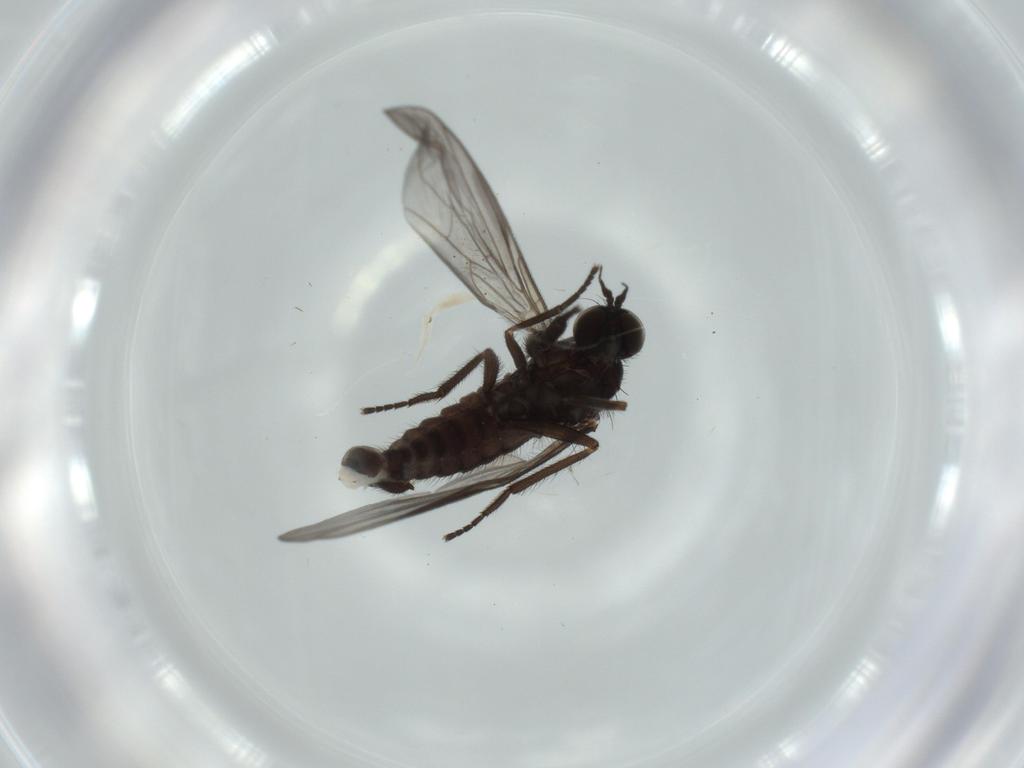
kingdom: Animalia
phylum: Arthropoda
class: Insecta
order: Diptera
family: Empididae
